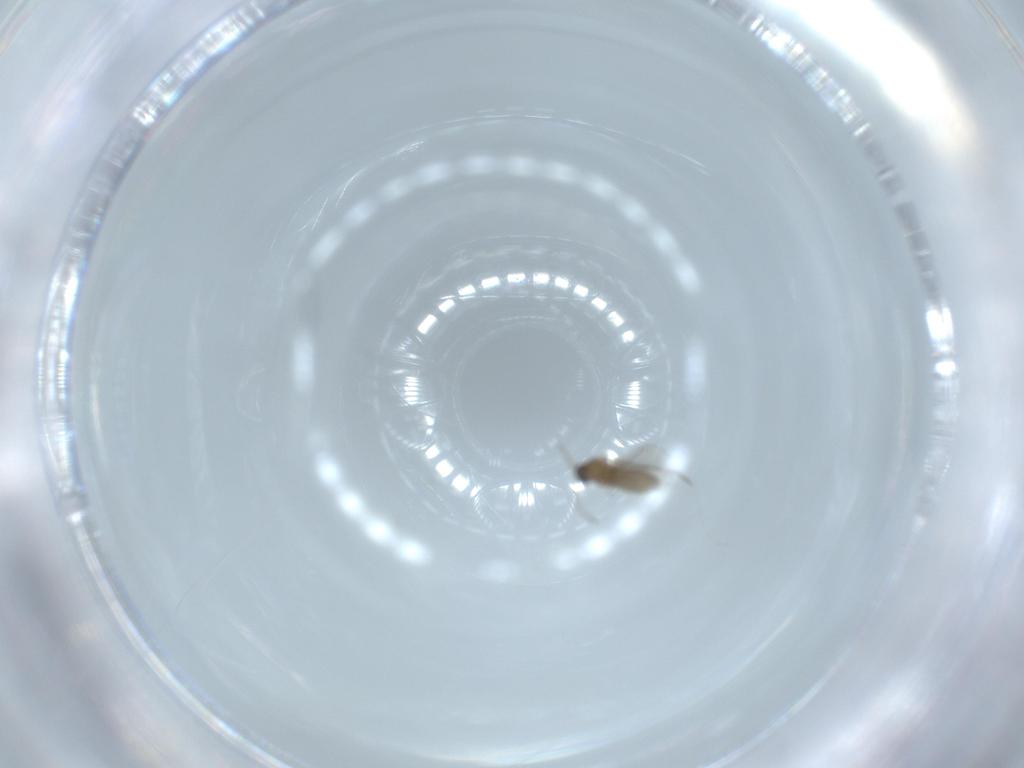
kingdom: Animalia
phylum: Arthropoda
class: Insecta
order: Diptera
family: Cecidomyiidae
